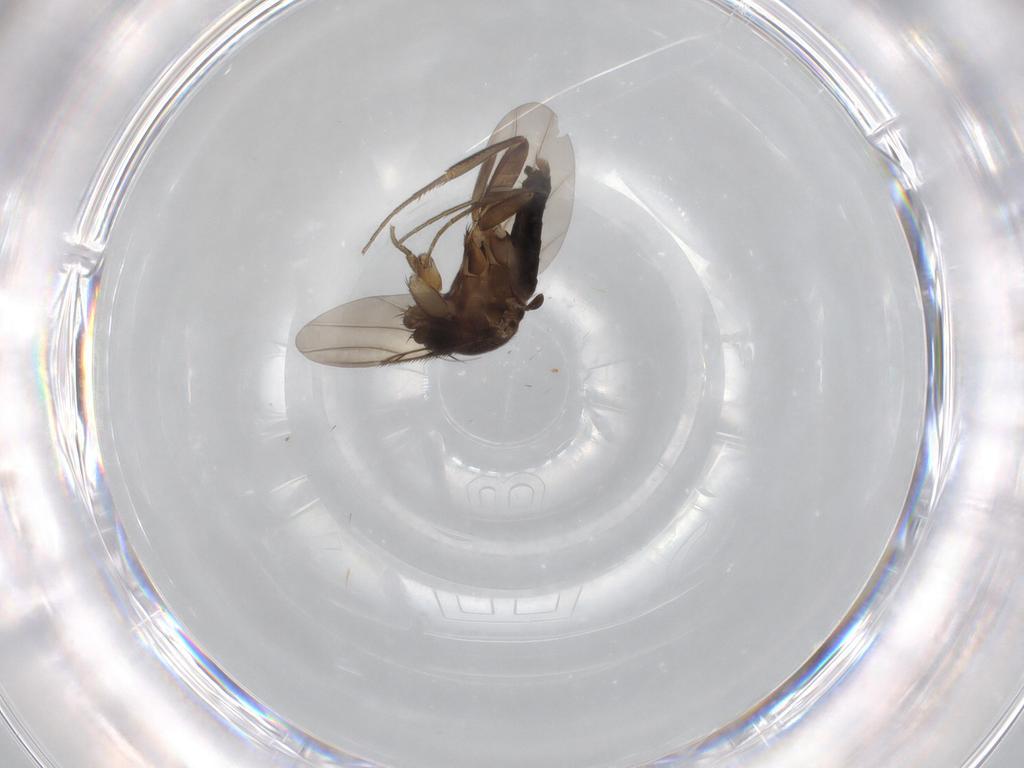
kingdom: Animalia
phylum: Arthropoda
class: Insecta
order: Diptera
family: Phoridae
